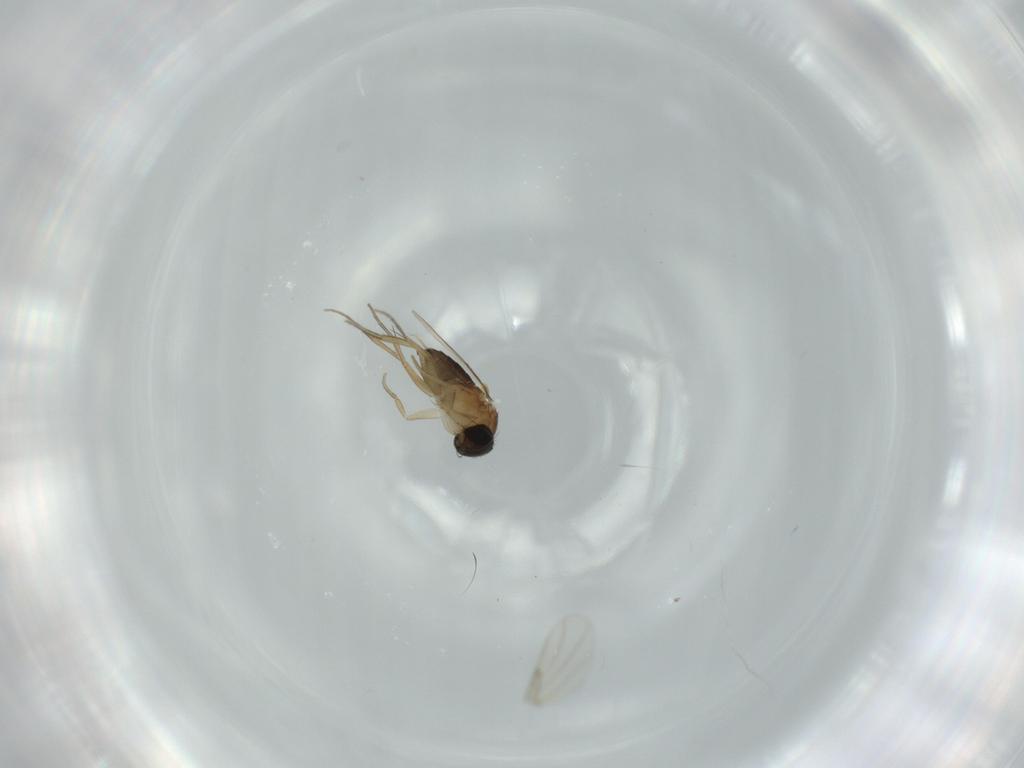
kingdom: Animalia
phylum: Arthropoda
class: Insecta
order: Diptera
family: Phoridae
